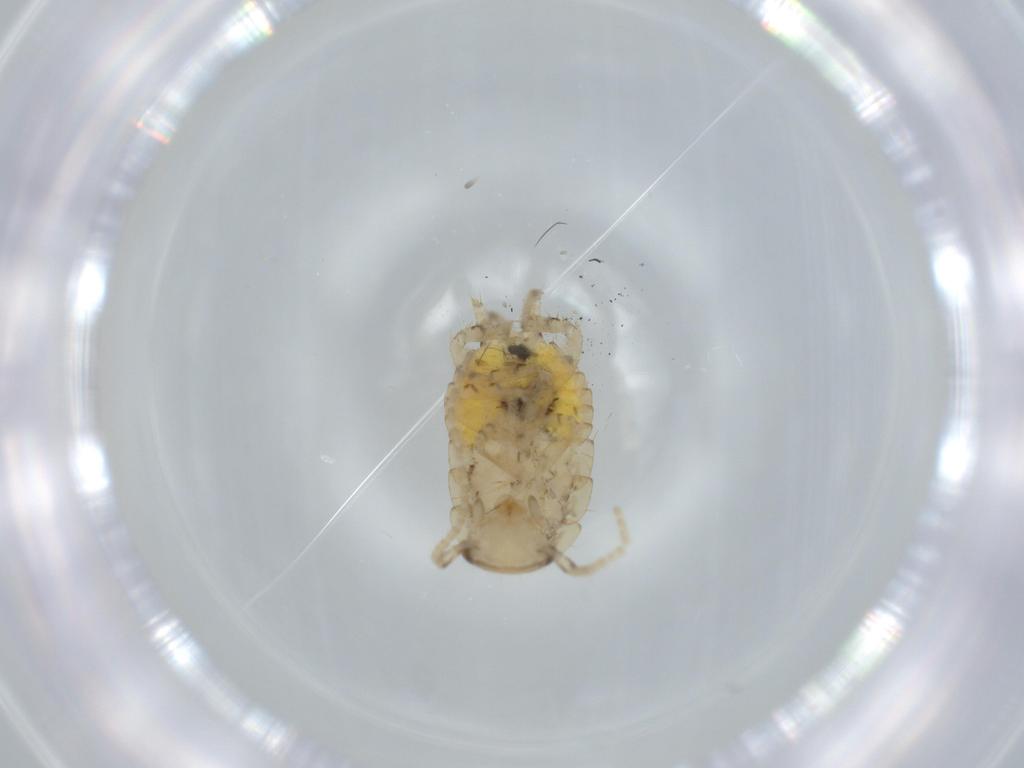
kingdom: Animalia
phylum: Arthropoda
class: Insecta
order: Blattodea
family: Ectobiidae
